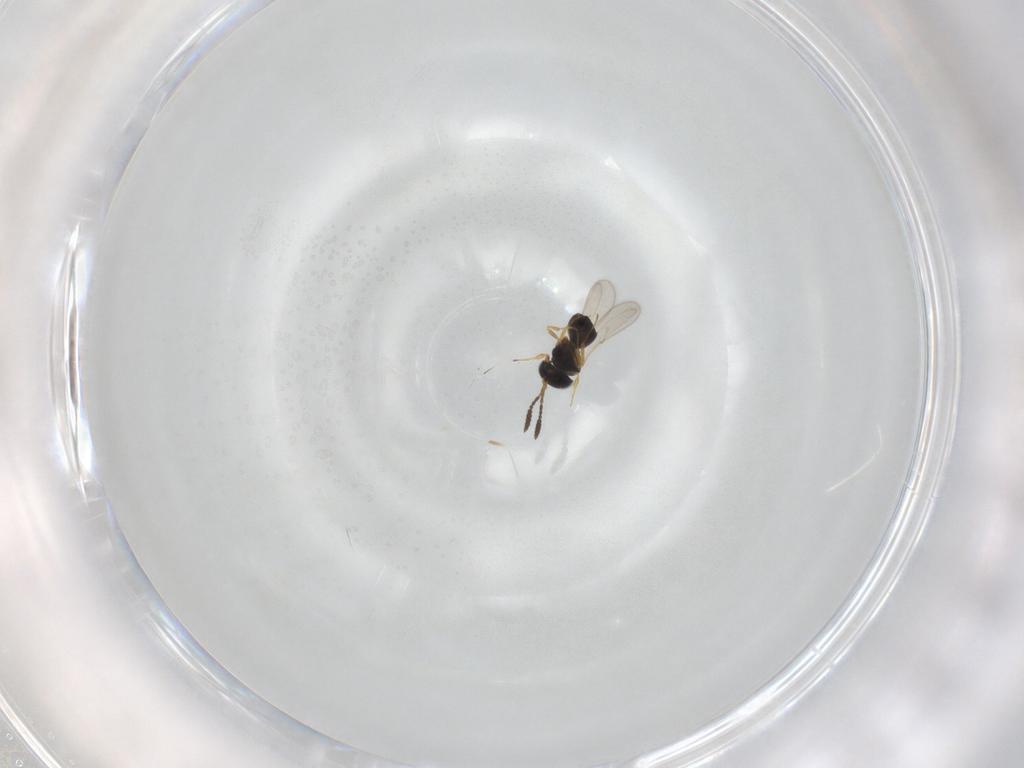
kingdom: Animalia
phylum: Arthropoda
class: Insecta
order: Hymenoptera
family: Scelionidae
